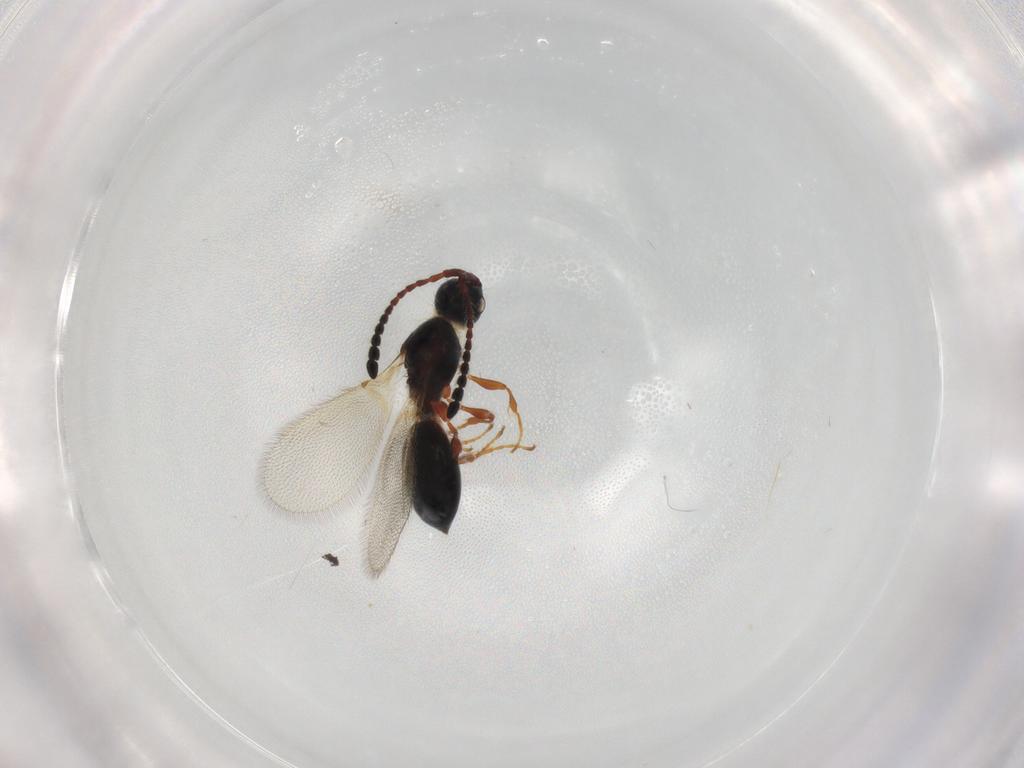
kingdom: Animalia
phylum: Arthropoda
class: Insecta
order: Hymenoptera
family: Diapriidae
